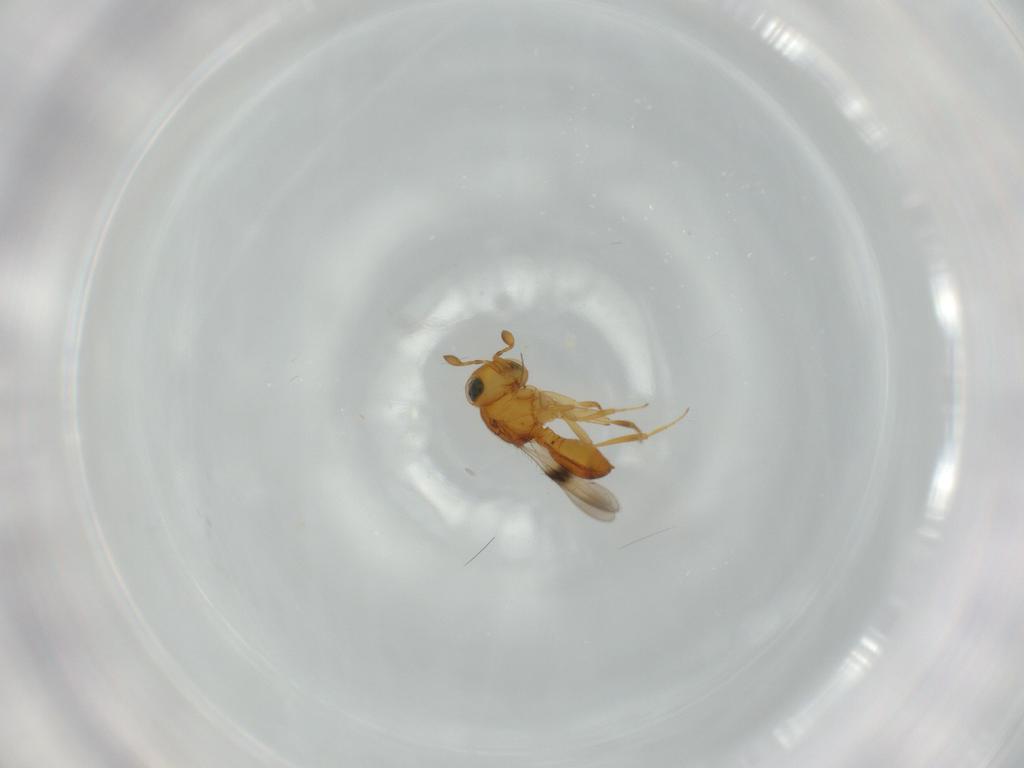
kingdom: Animalia
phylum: Arthropoda
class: Insecta
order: Hymenoptera
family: Scelionidae
